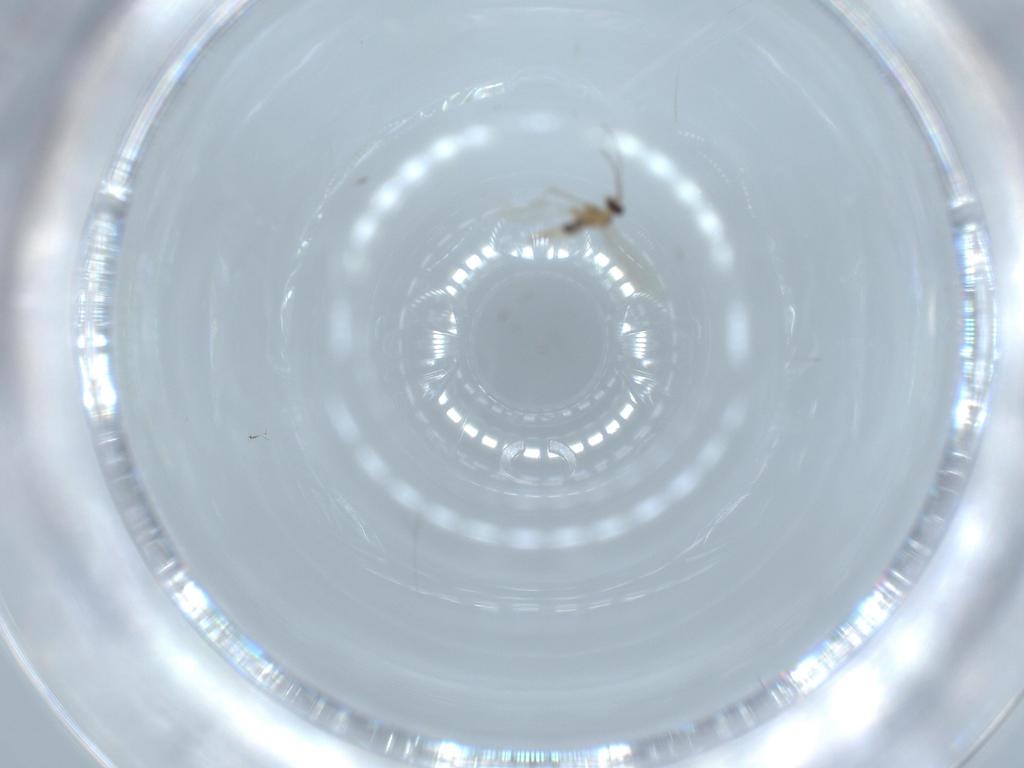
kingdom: Animalia
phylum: Arthropoda
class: Insecta
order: Diptera
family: Cecidomyiidae
